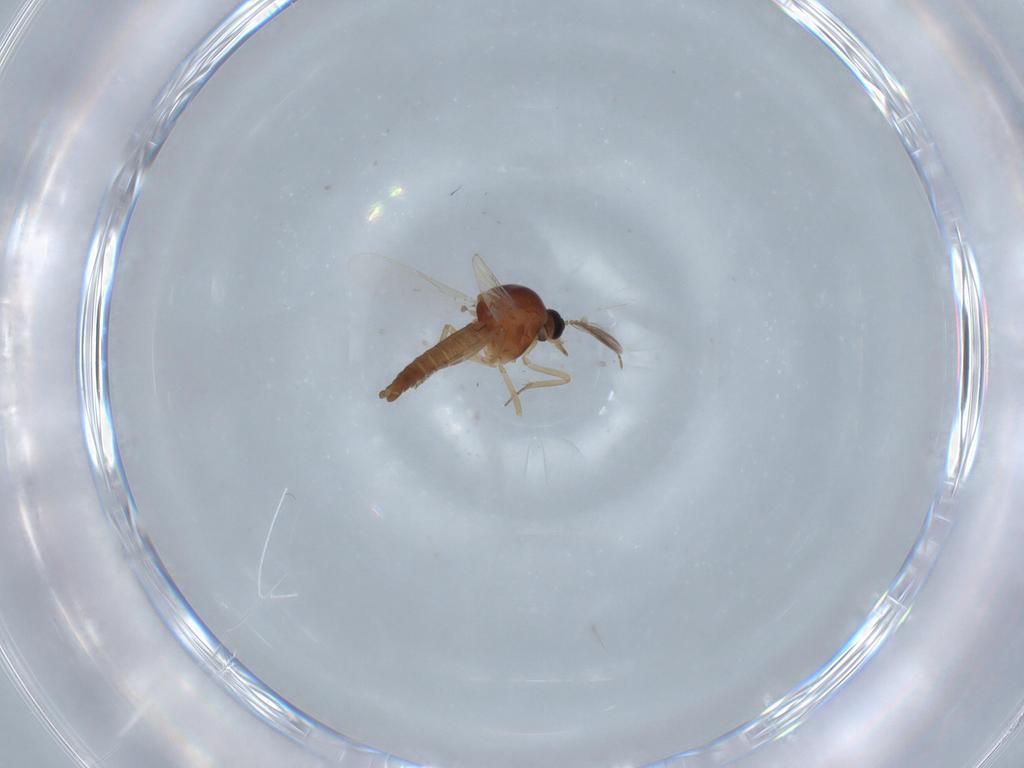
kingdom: Animalia
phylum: Arthropoda
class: Insecta
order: Diptera
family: Ceratopogonidae
